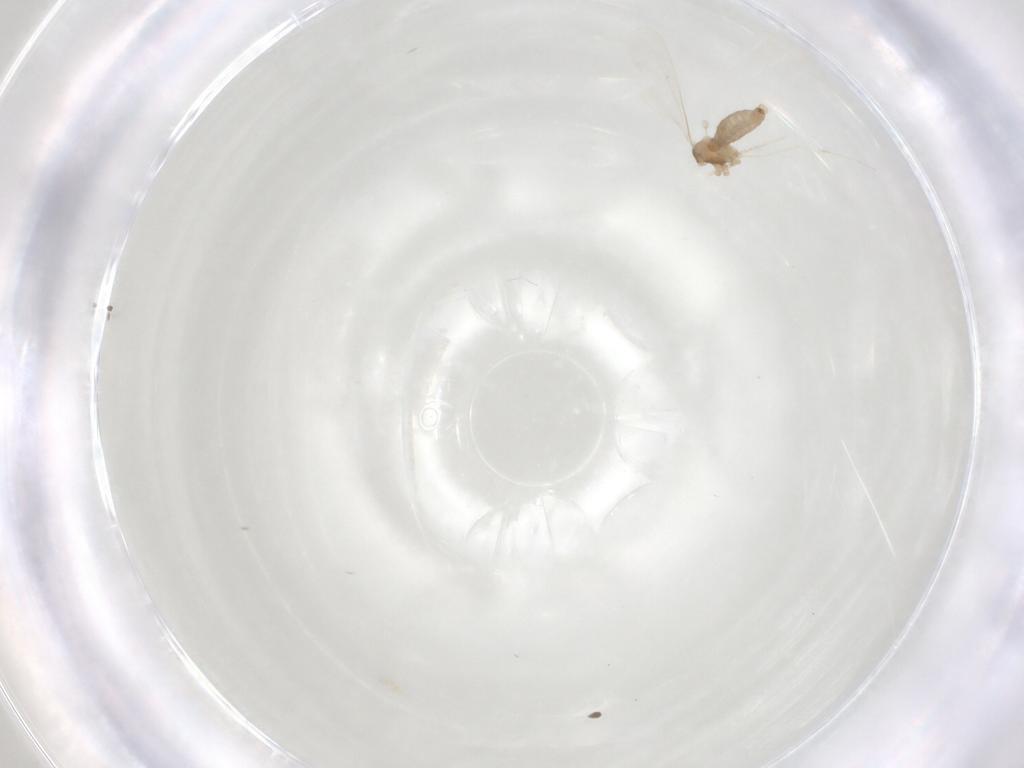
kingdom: Animalia
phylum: Arthropoda
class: Insecta
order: Diptera
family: Cecidomyiidae
